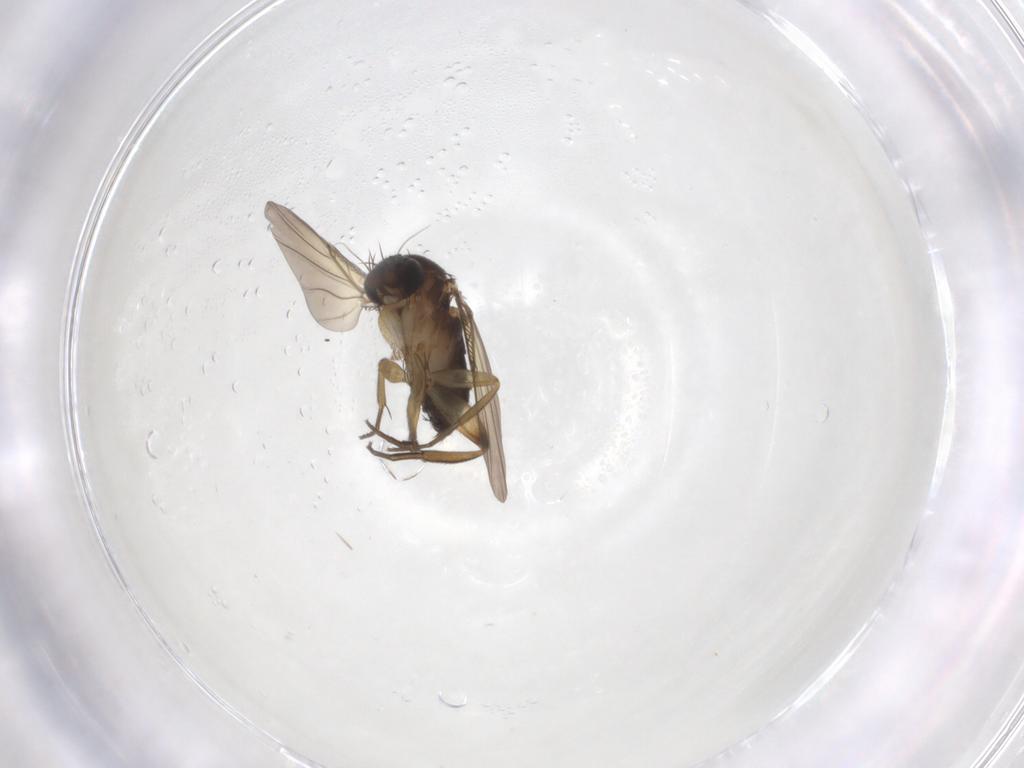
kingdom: Animalia
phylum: Arthropoda
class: Insecta
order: Diptera
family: Phoridae
